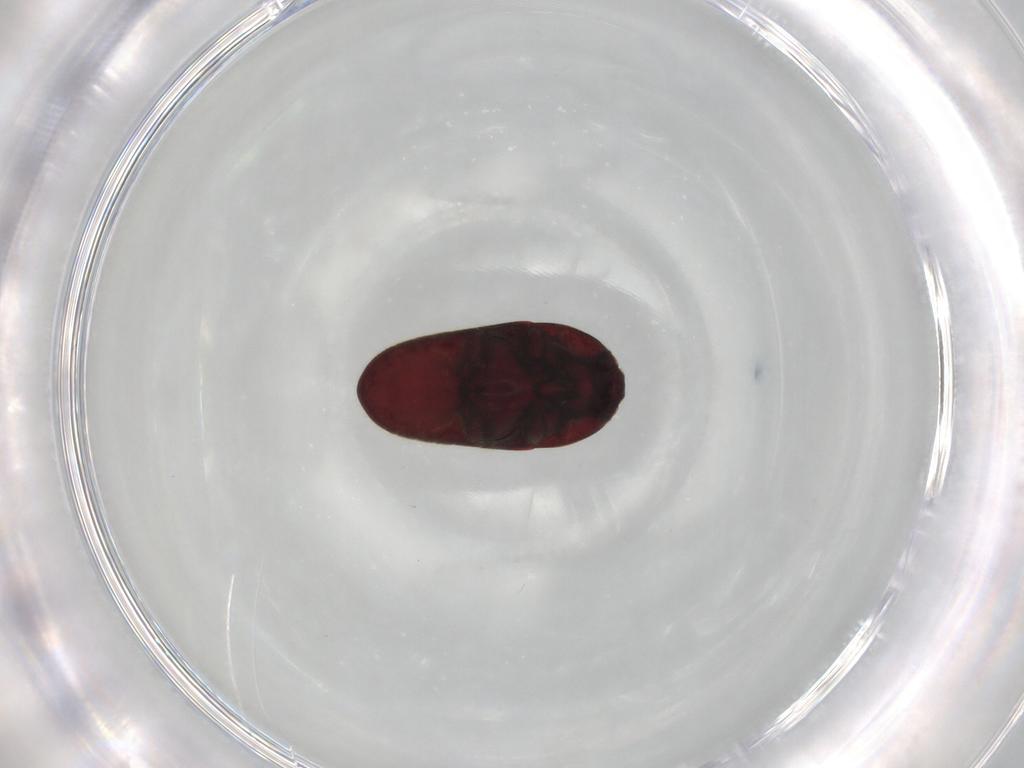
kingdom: Animalia
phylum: Arthropoda
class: Insecta
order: Coleoptera
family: Throscidae
